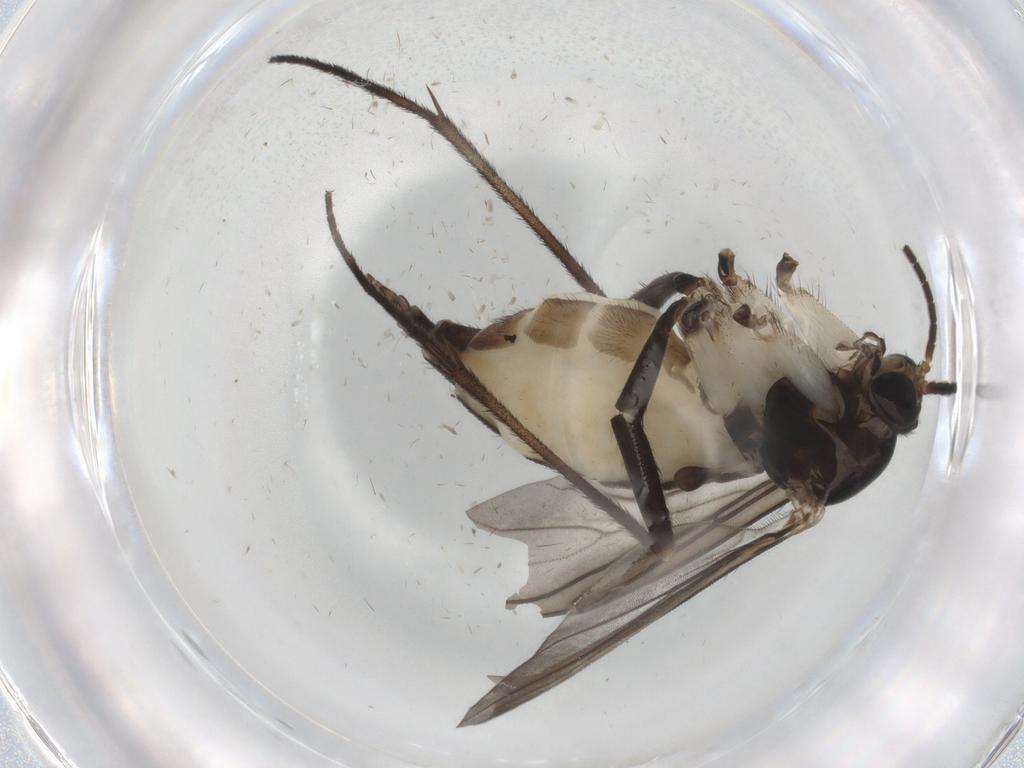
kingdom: Animalia
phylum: Arthropoda
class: Insecta
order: Diptera
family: Sciaridae
